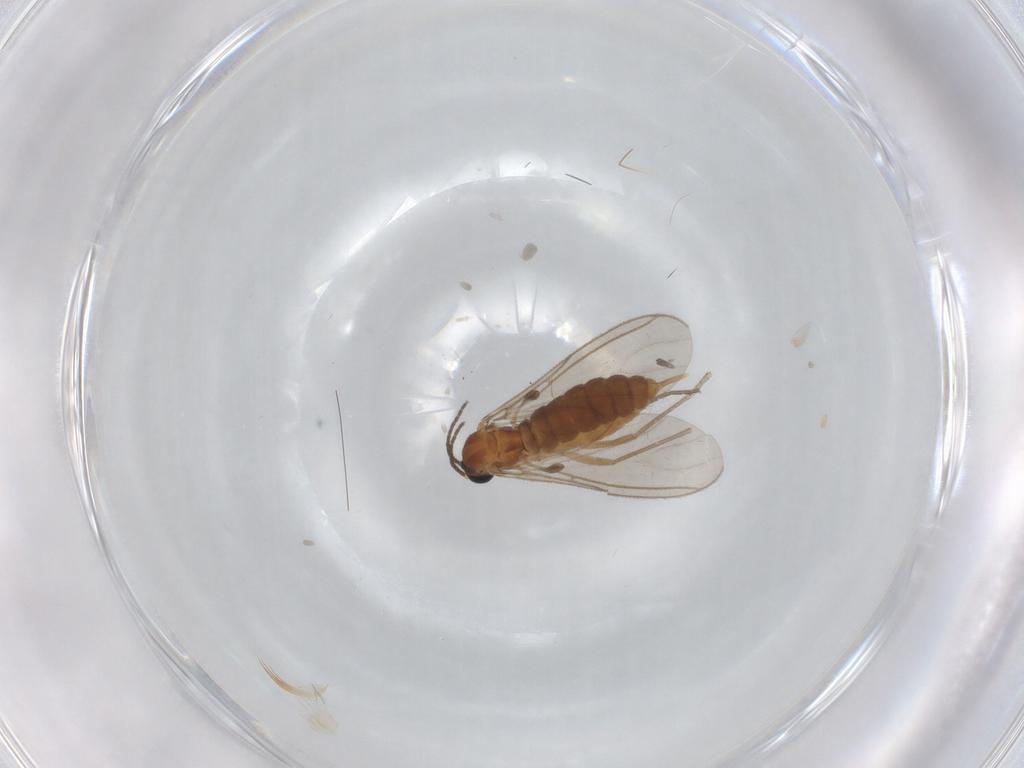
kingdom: Animalia
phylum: Arthropoda
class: Insecta
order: Diptera
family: Sciaridae
